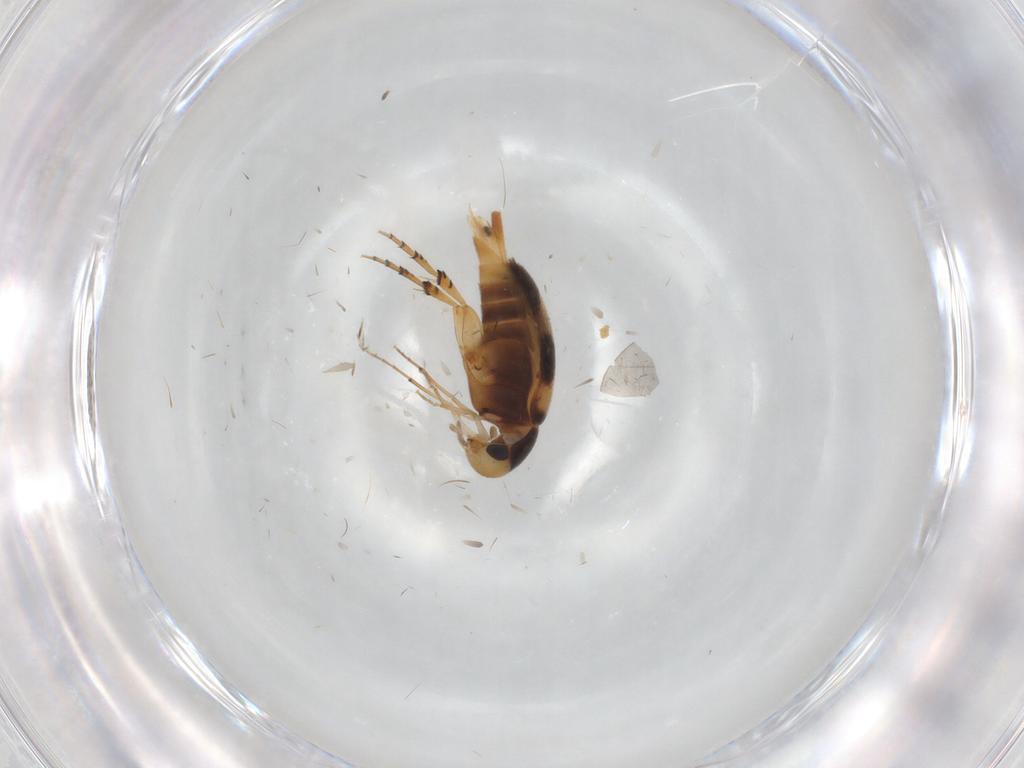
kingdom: Animalia
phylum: Arthropoda
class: Insecta
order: Coleoptera
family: Mordellidae
